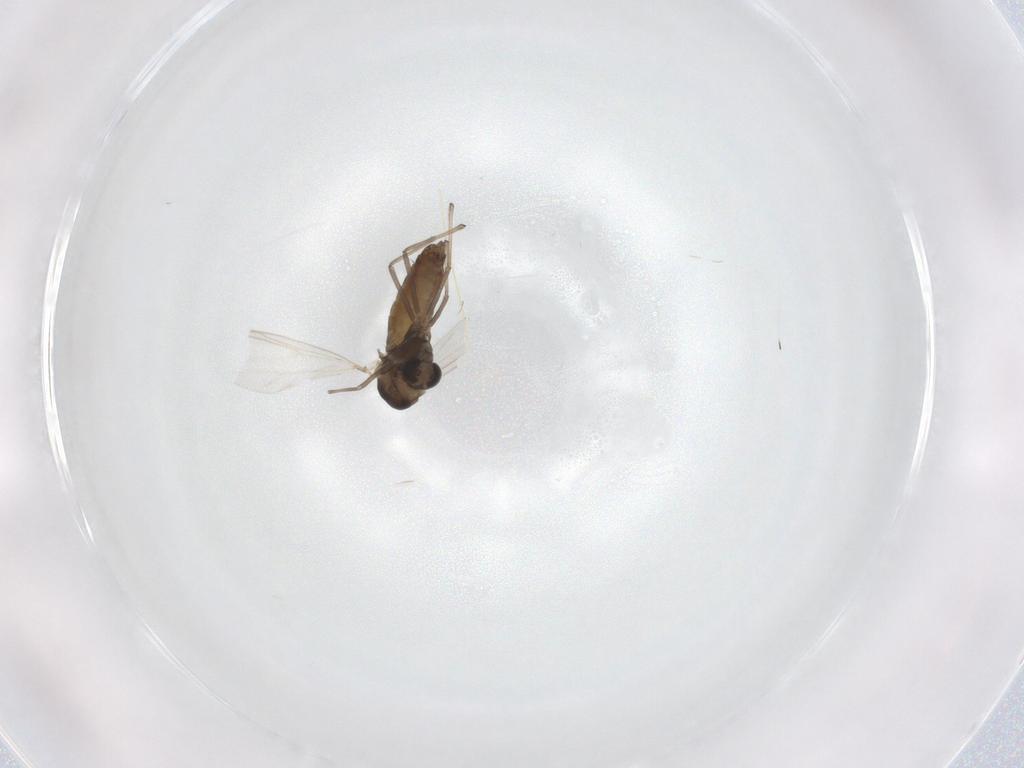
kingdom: Animalia
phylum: Arthropoda
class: Insecta
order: Diptera
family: Chironomidae
